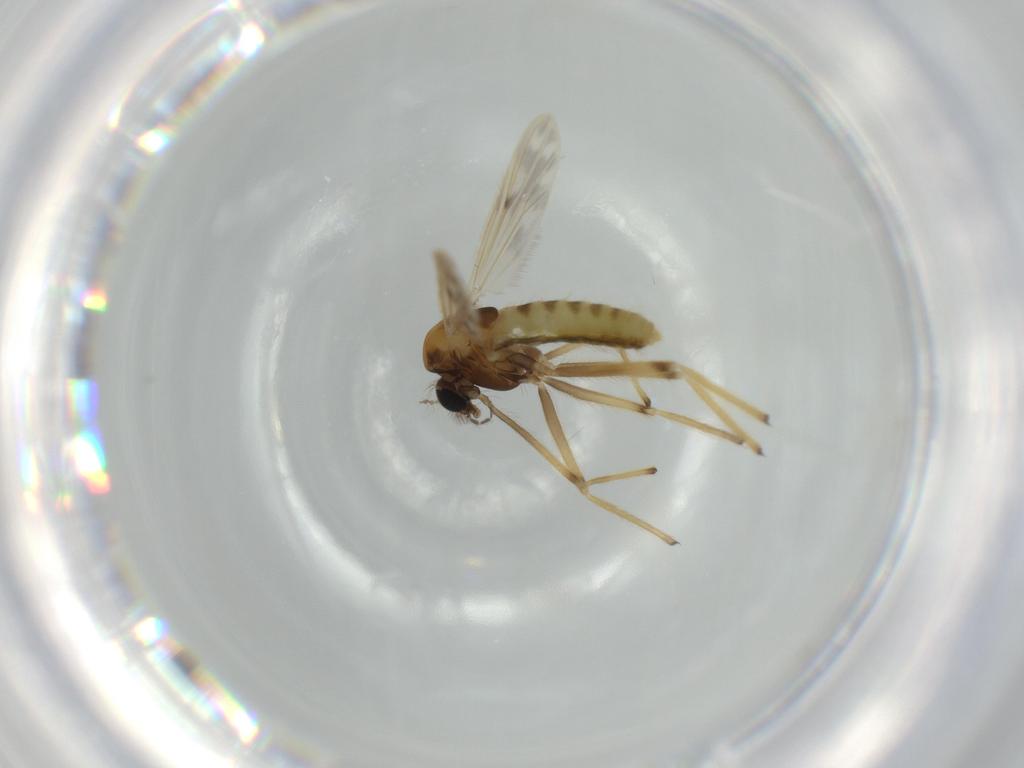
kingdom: Animalia
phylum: Arthropoda
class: Insecta
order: Diptera
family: Chironomidae
